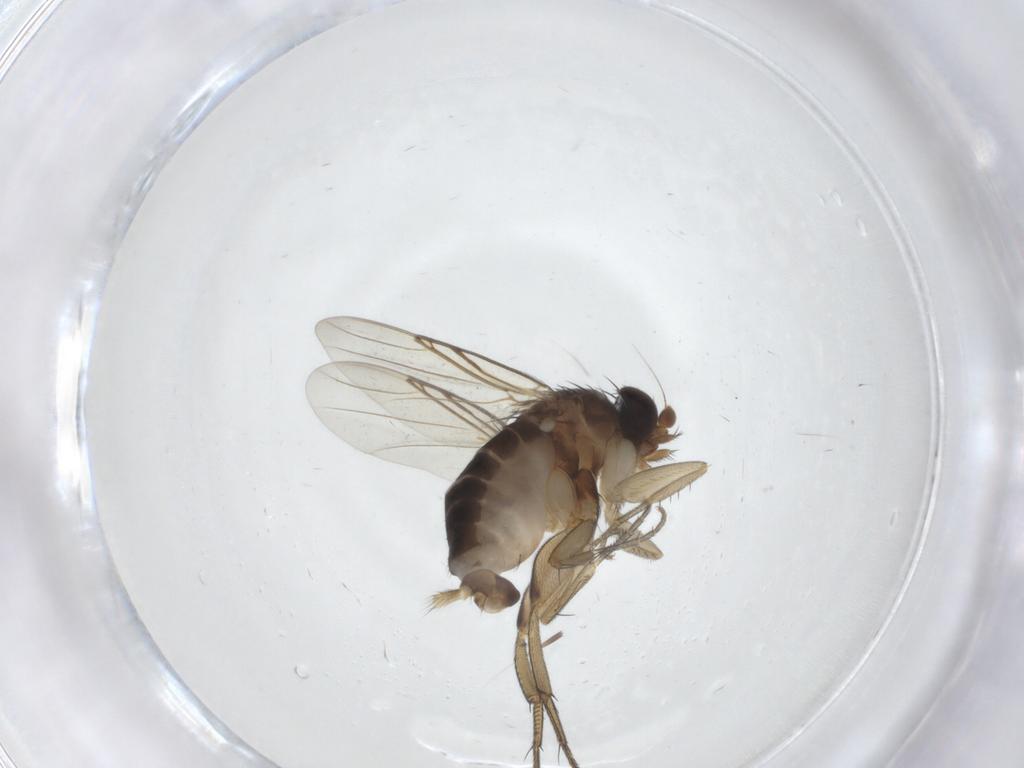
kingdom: Animalia
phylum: Arthropoda
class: Insecta
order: Diptera
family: Phoridae
